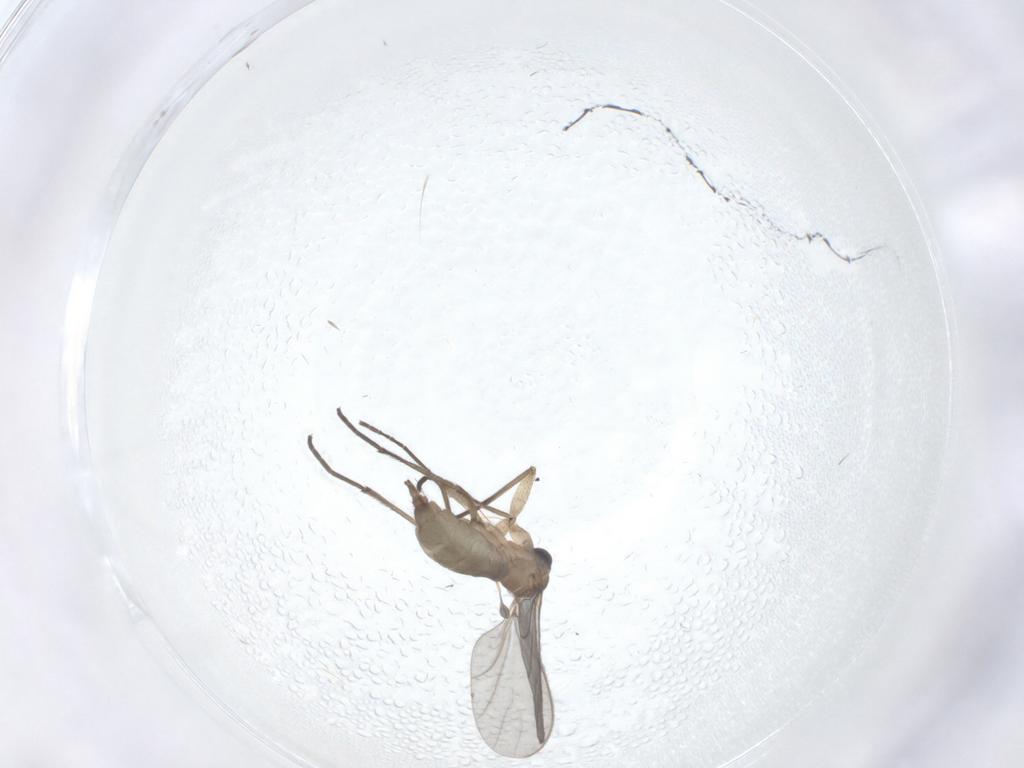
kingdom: Animalia
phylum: Arthropoda
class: Insecta
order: Diptera
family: Sciaridae
